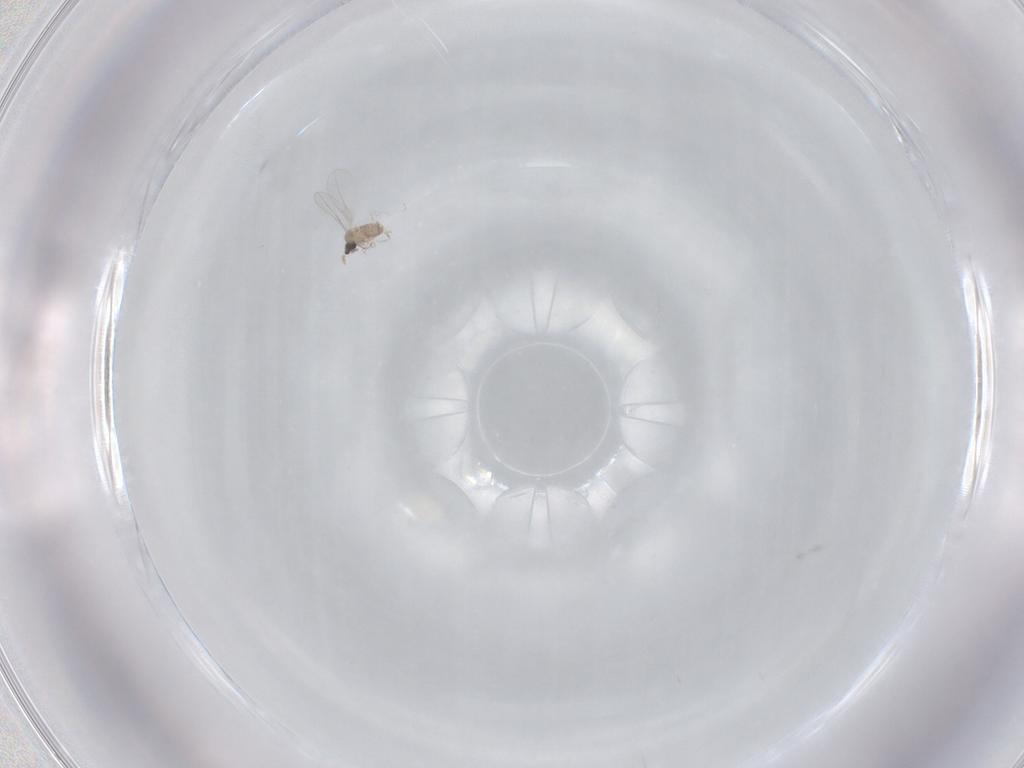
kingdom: Animalia
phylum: Arthropoda
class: Insecta
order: Diptera
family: Cecidomyiidae
